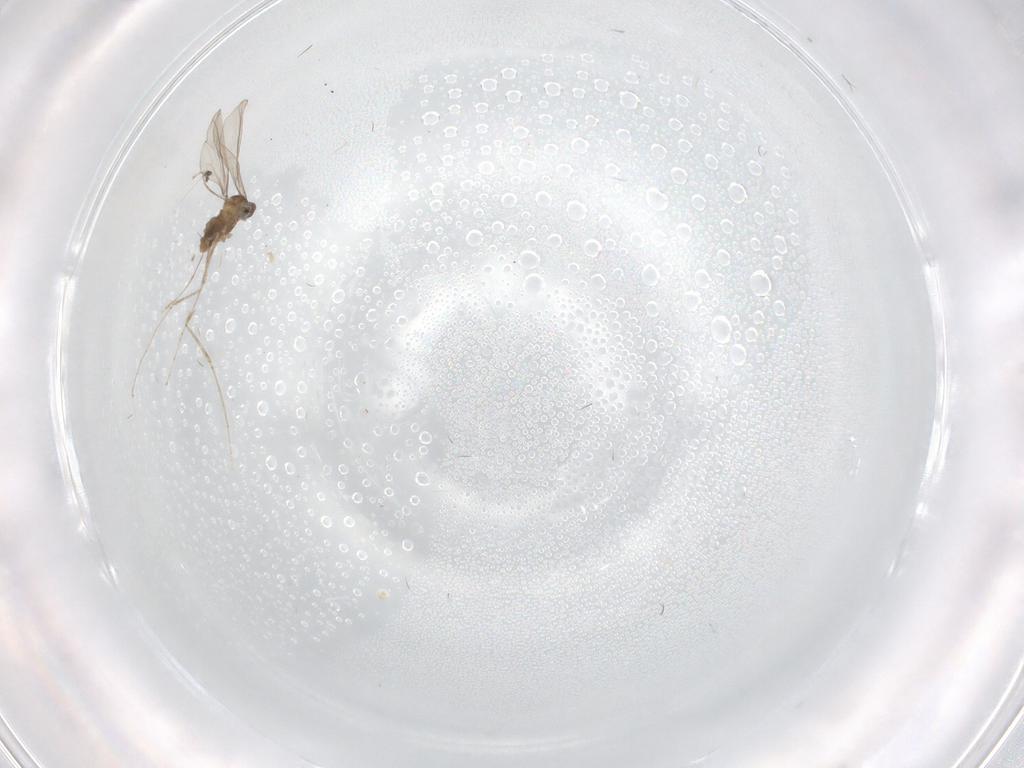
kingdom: Animalia
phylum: Arthropoda
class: Insecta
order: Diptera
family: Cecidomyiidae
